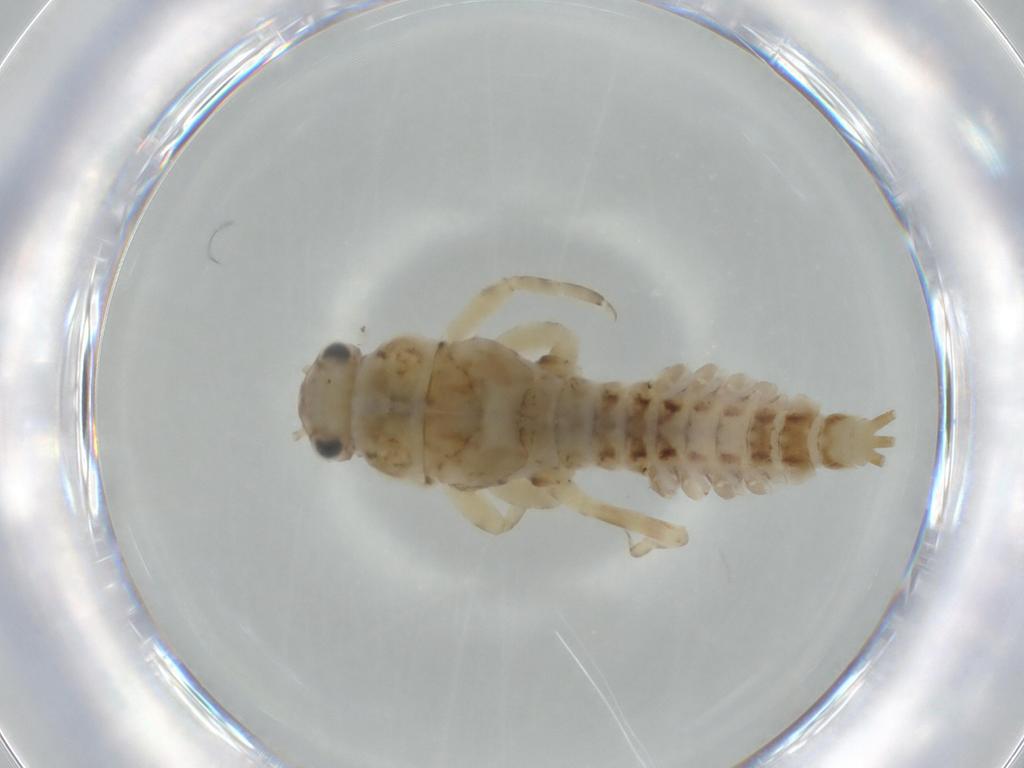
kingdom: Animalia
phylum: Arthropoda
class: Insecta
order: Ephemeroptera
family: Ephemerellidae
